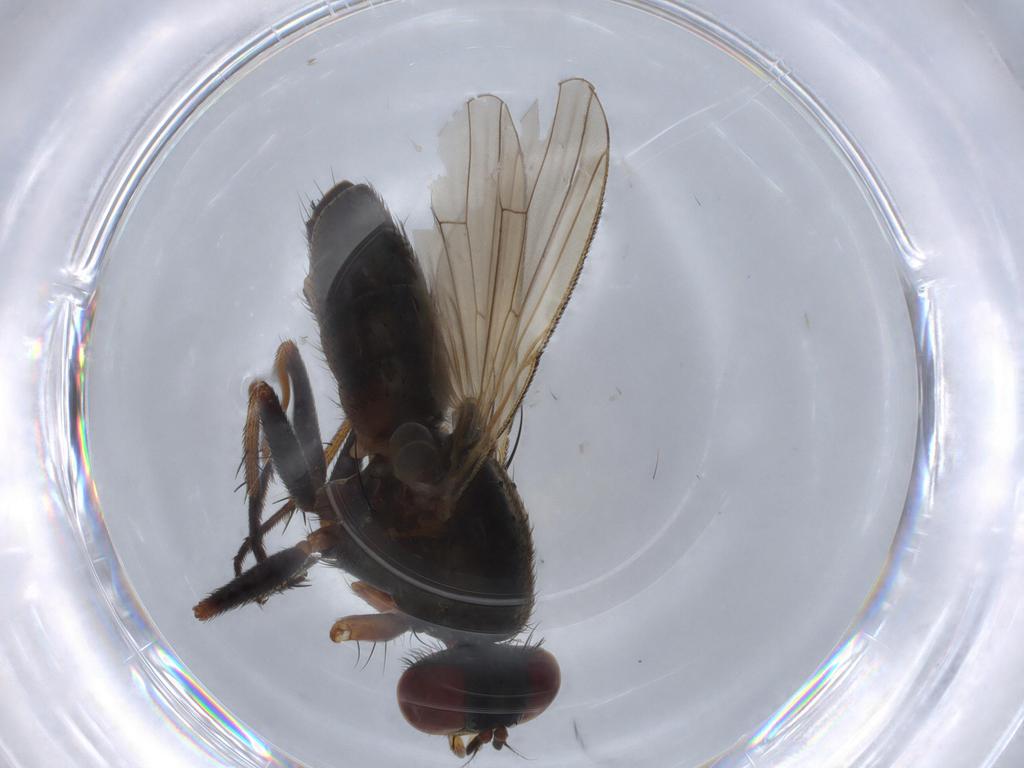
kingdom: Animalia
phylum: Arthropoda
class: Insecta
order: Diptera
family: Muscidae
